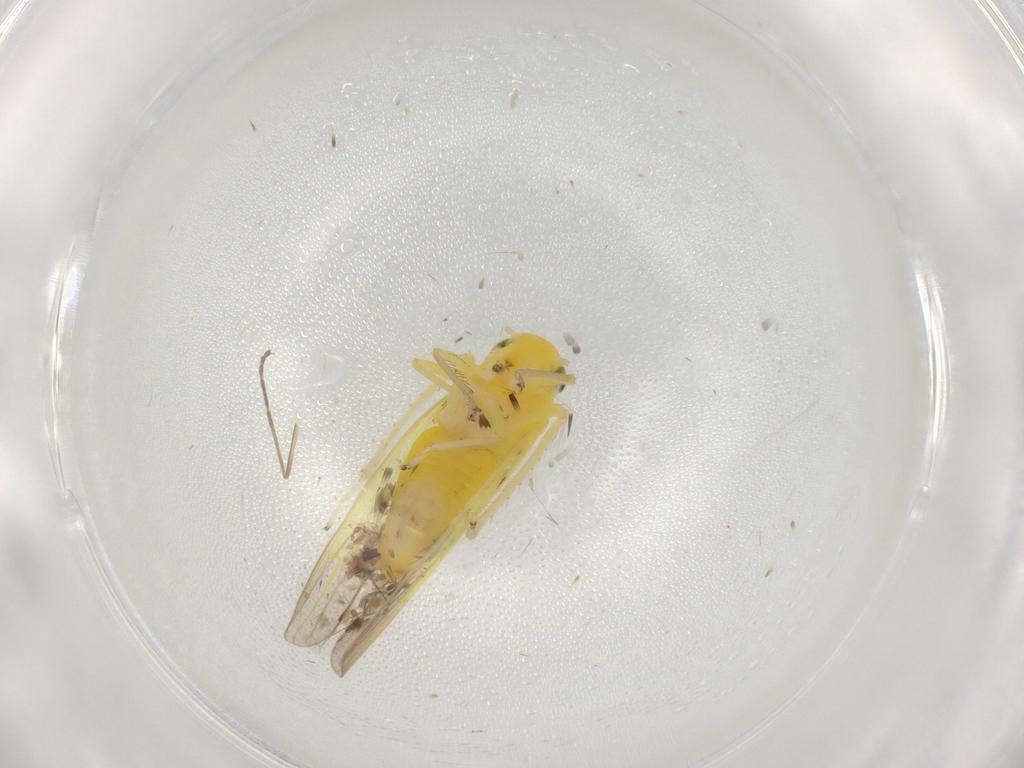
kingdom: Animalia
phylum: Arthropoda
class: Insecta
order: Hemiptera
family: Cicadellidae
